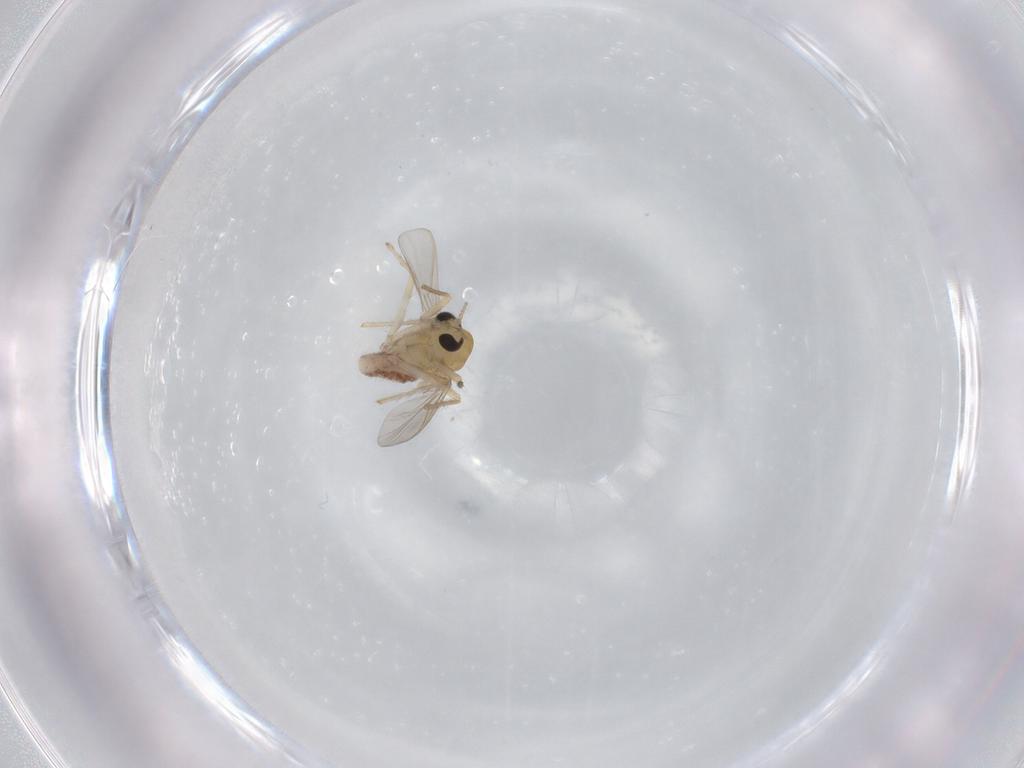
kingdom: Animalia
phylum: Arthropoda
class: Insecta
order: Diptera
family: Chironomidae
